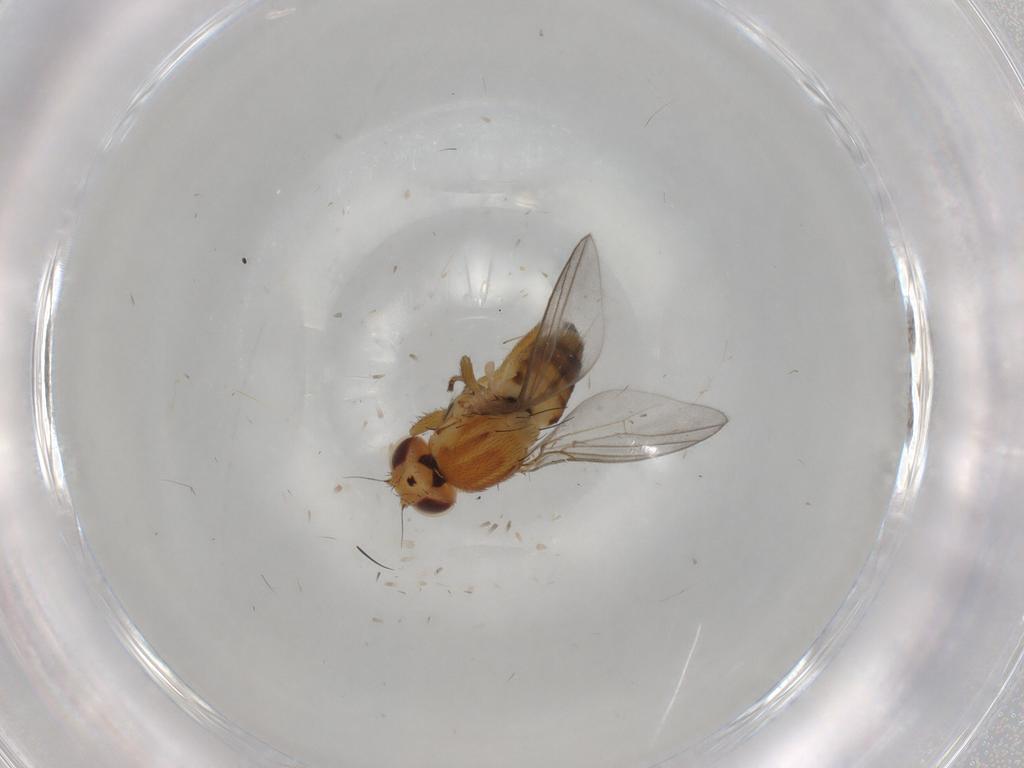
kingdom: Animalia
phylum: Arthropoda
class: Insecta
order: Diptera
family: Chloropidae
